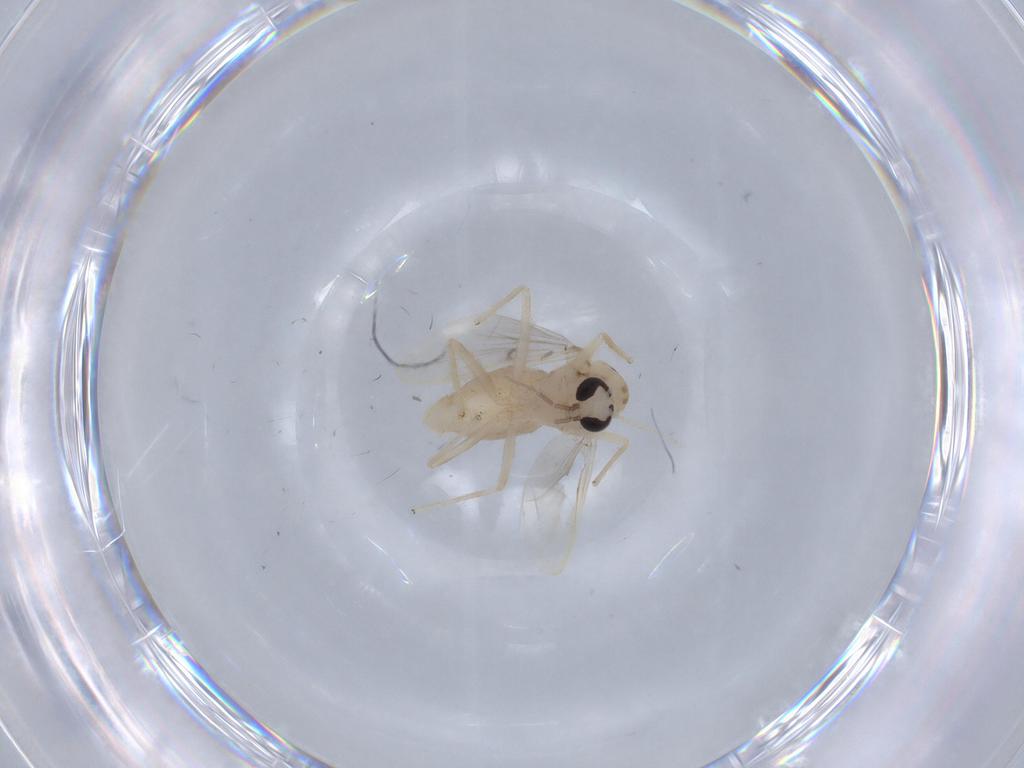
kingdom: Animalia
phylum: Arthropoda
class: Insecta
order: Diptera
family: Chironomidae
